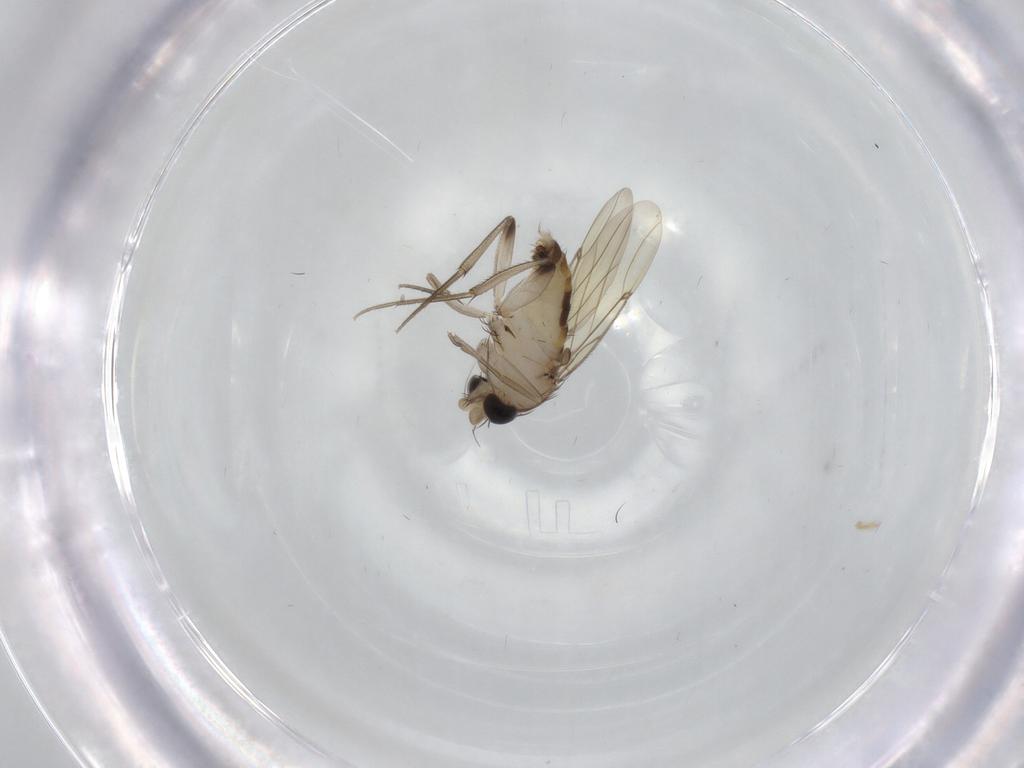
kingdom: Animalia
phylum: Arthropoda
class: Insecta
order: Diptera
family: Chironomidae
